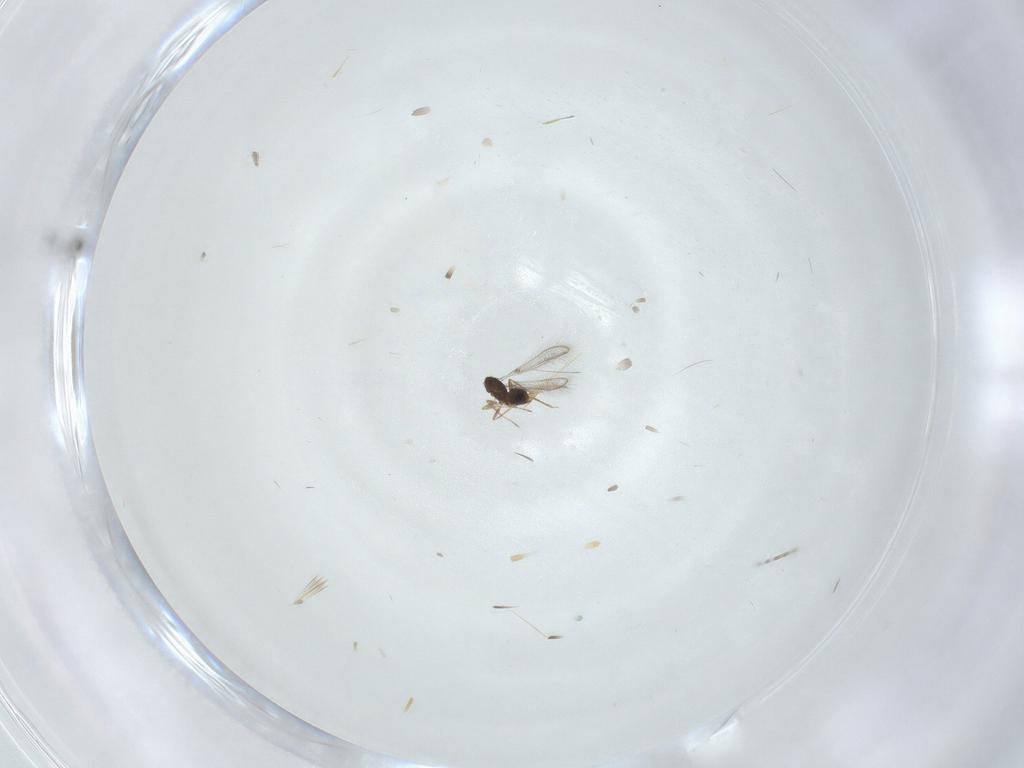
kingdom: Animalia
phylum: Arthropoda
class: Insecta
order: Hymenoptera
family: Mymaridae
